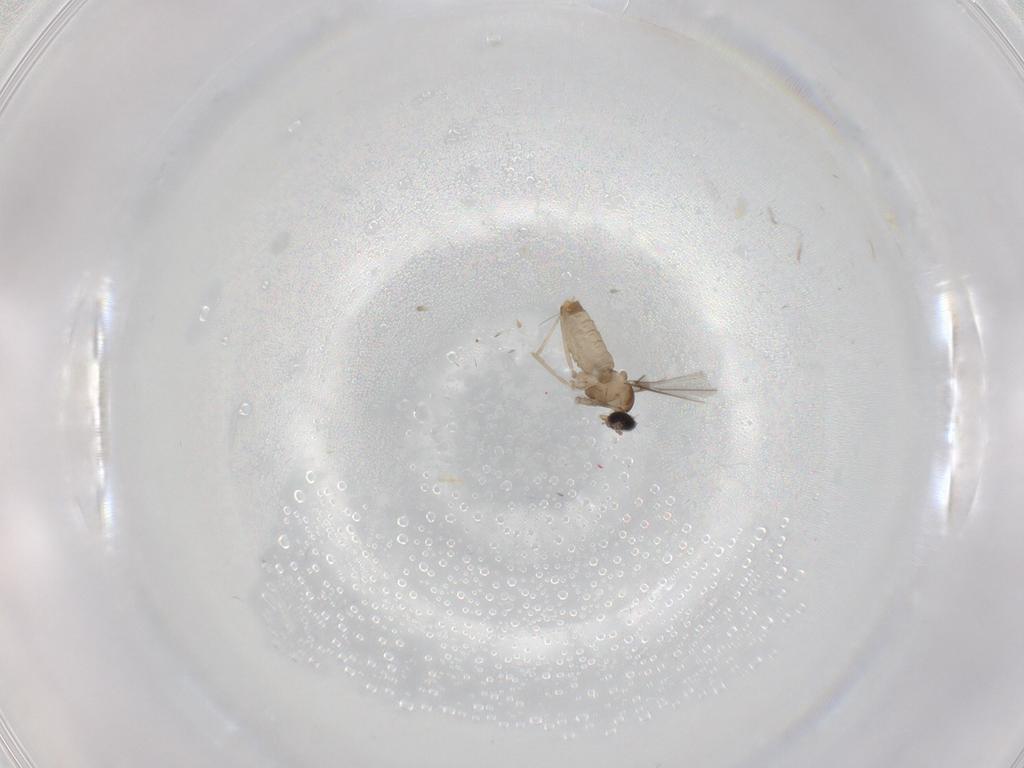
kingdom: Animalia
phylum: Arthropoda
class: Insecta
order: Diptera
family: Cecidomyiidae
